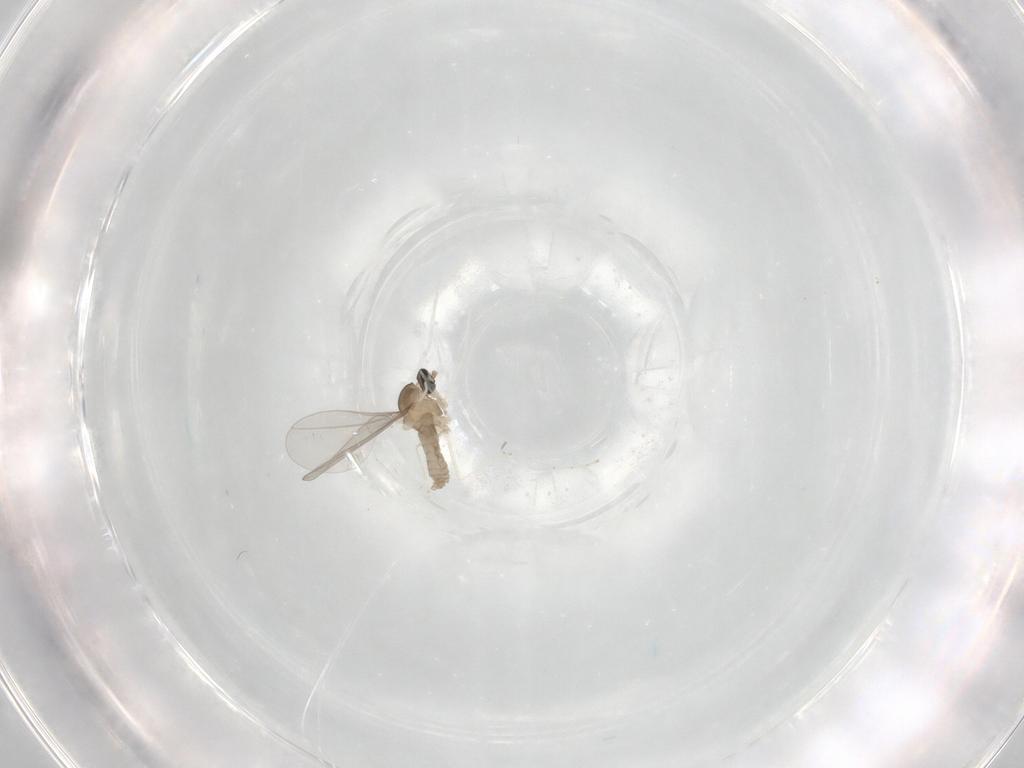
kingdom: Animalia
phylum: Arthropoda
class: Insecta
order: Diptera
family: Cecidomyiidae
